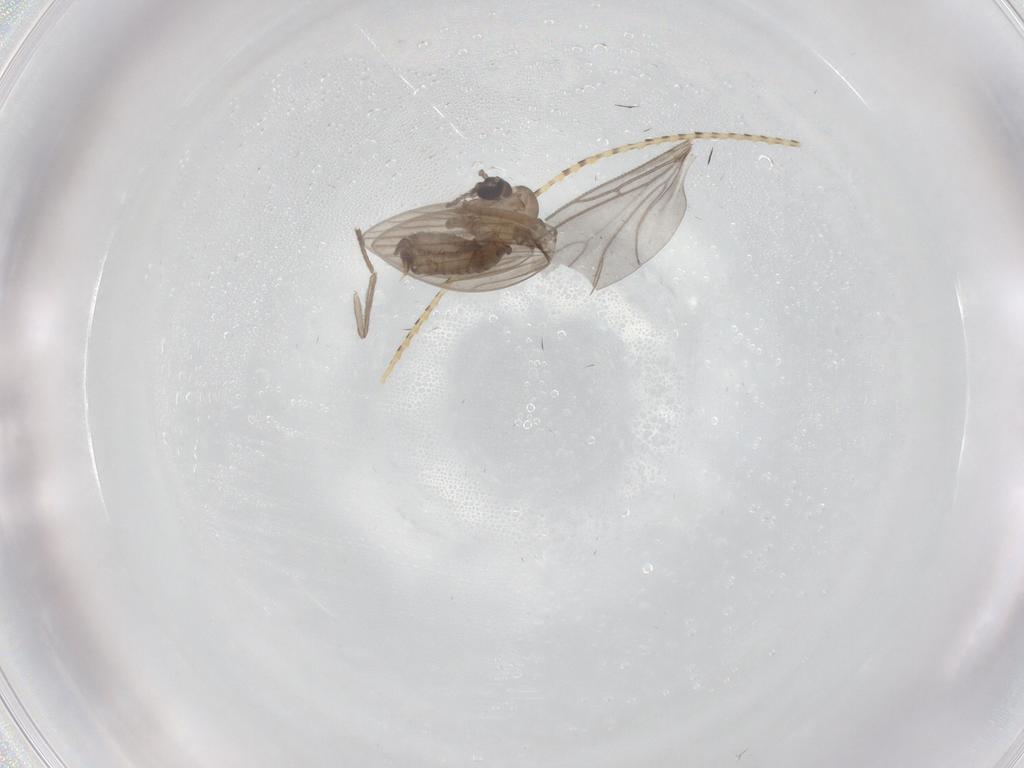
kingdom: Animalia
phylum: Arthropoda
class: Insecta
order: Diptera
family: Psychodidae
